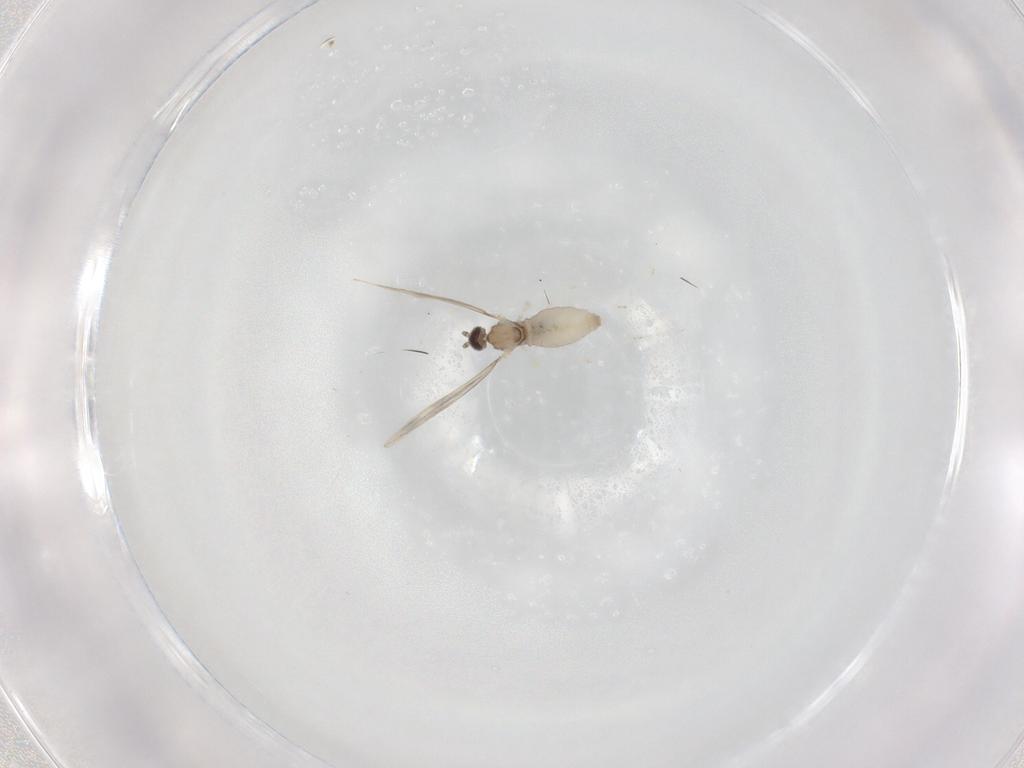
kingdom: Animalia
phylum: Arthropoda
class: Insecta
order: Diptera
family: Cecidomyiidae
